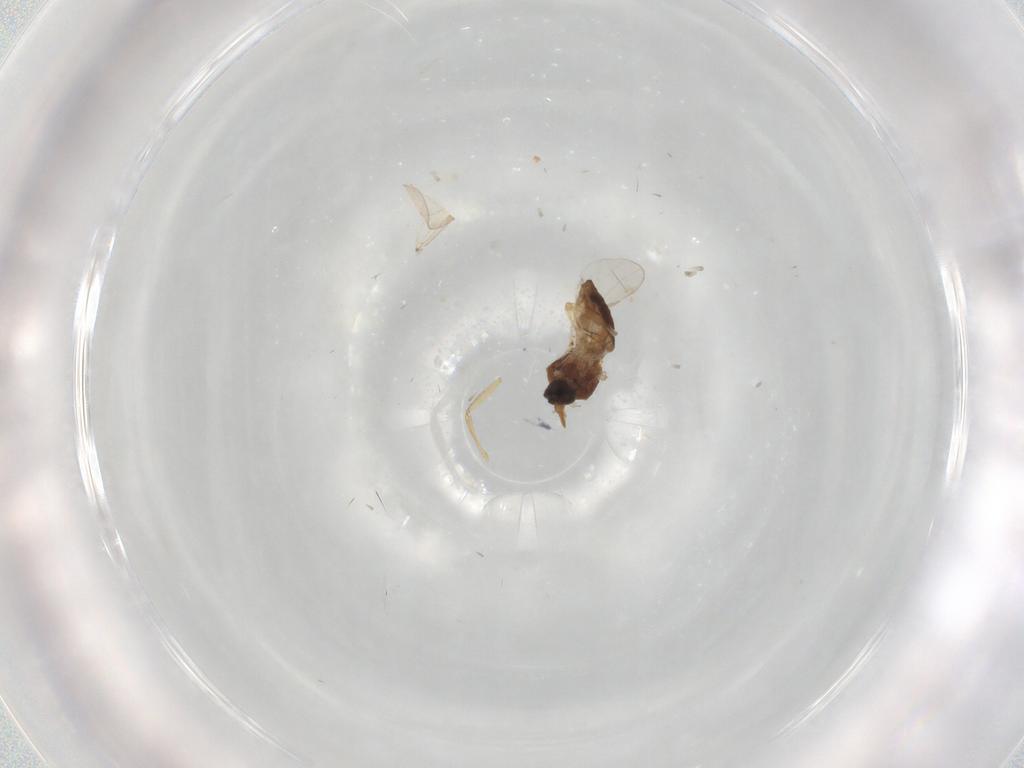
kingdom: Animalia
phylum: Arthropoda
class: Insecta
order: Diptera
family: Ceratopogonidae
